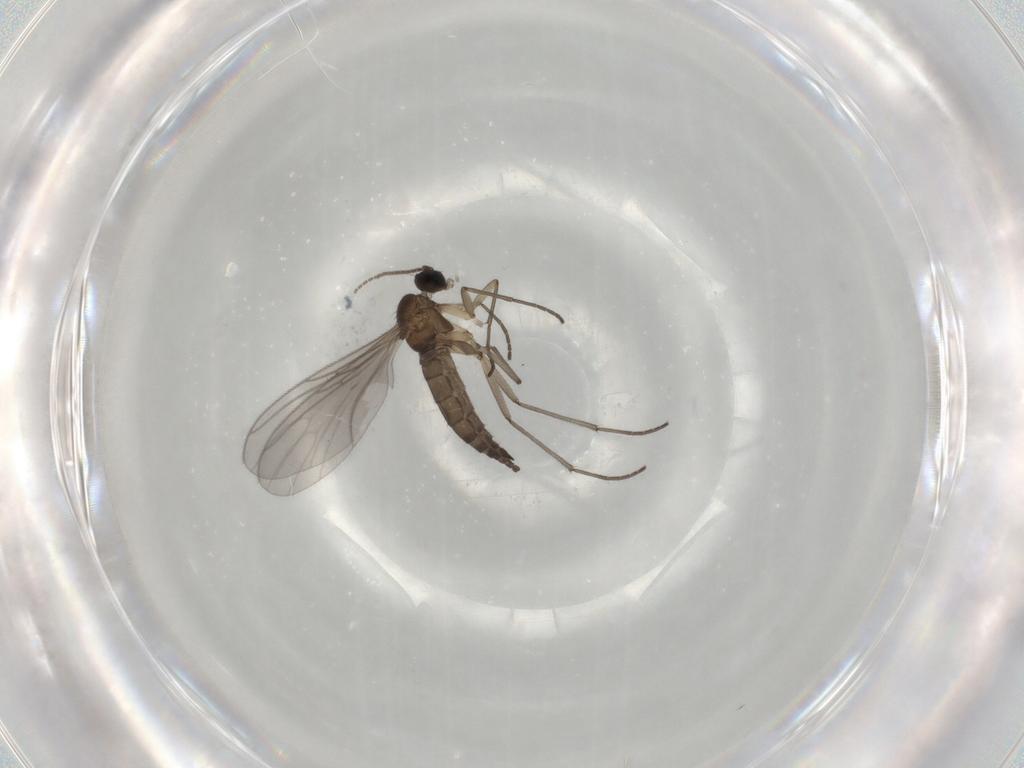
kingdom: Animalia
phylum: Arthropoda
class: Insecta
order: Diptera
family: Sciaridae
